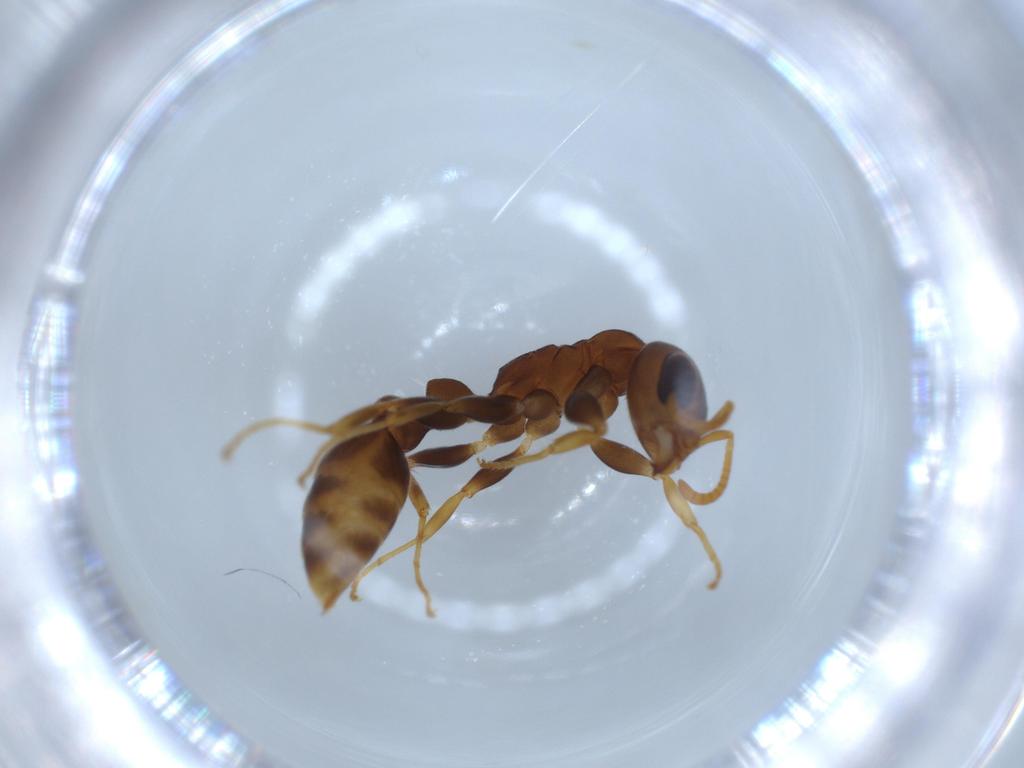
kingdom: Animalia
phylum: Arthropoda
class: Insecta
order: Hymenoptera
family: Formicidae
